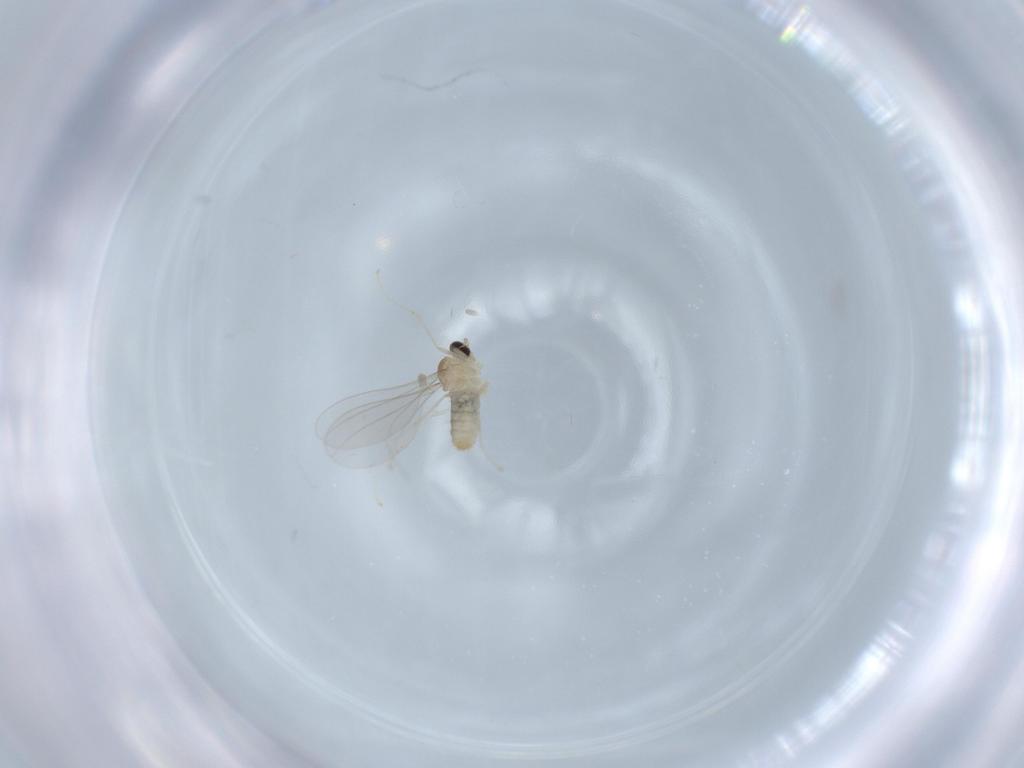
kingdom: Animalia
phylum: Arthropoda
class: Insecta
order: Diptera
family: Cecidomyiidae
